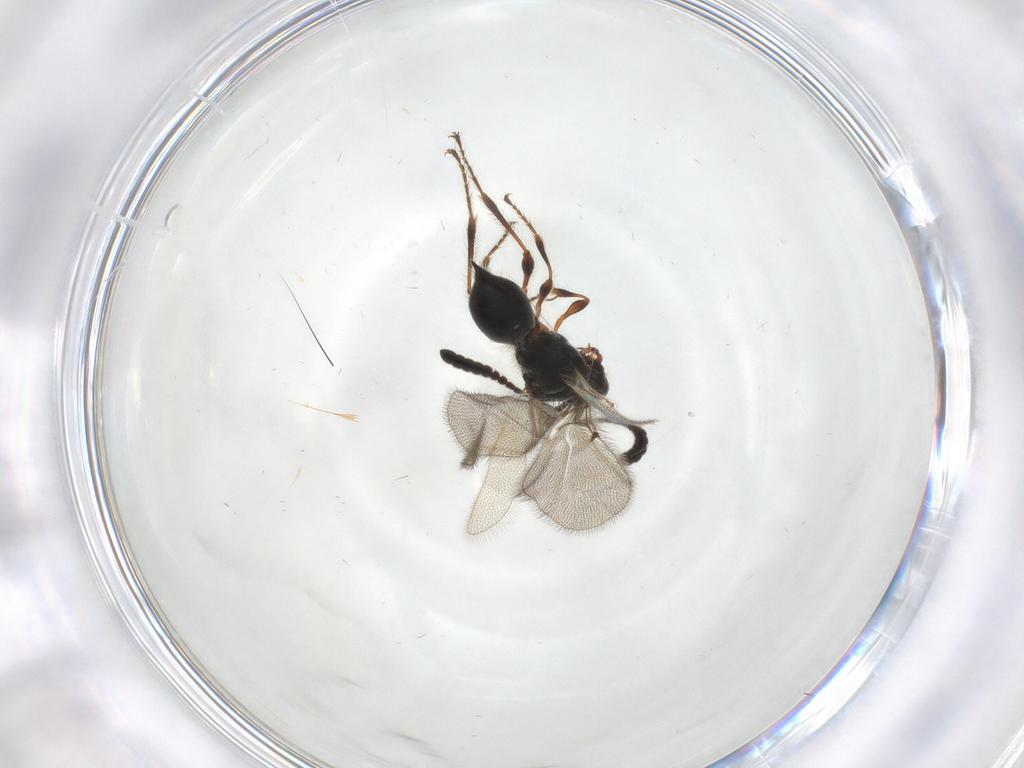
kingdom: Animalia
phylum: Arthropoda
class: Insecta
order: Hymenoptera
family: Diapriidae
